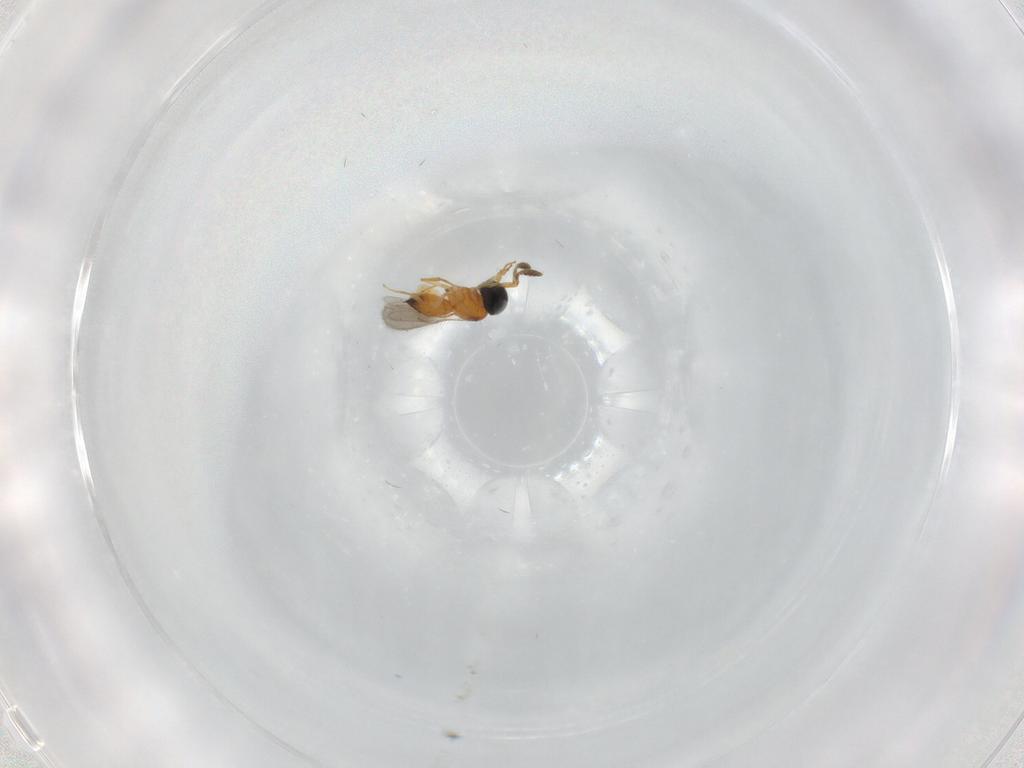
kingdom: Animalia
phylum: Arthropoda
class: Insecta
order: Hymenoptera
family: Scelionidae
